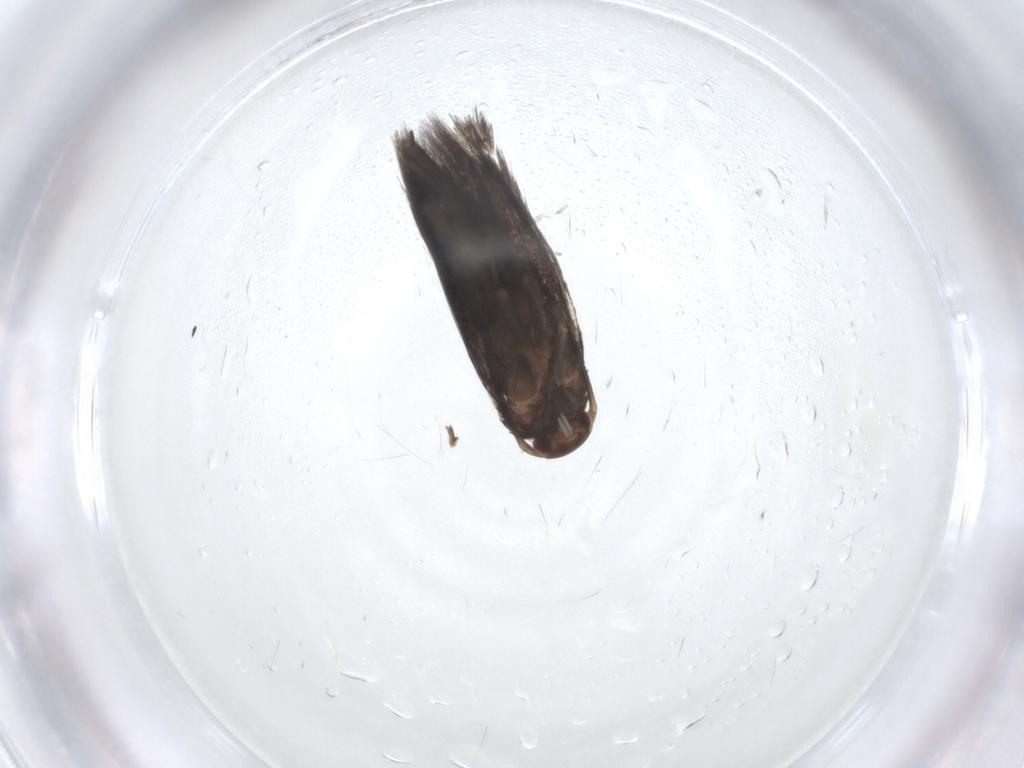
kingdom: Animalia
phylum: Arthropoda
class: Insecta
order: Lepidoptera
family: Elachistidae
